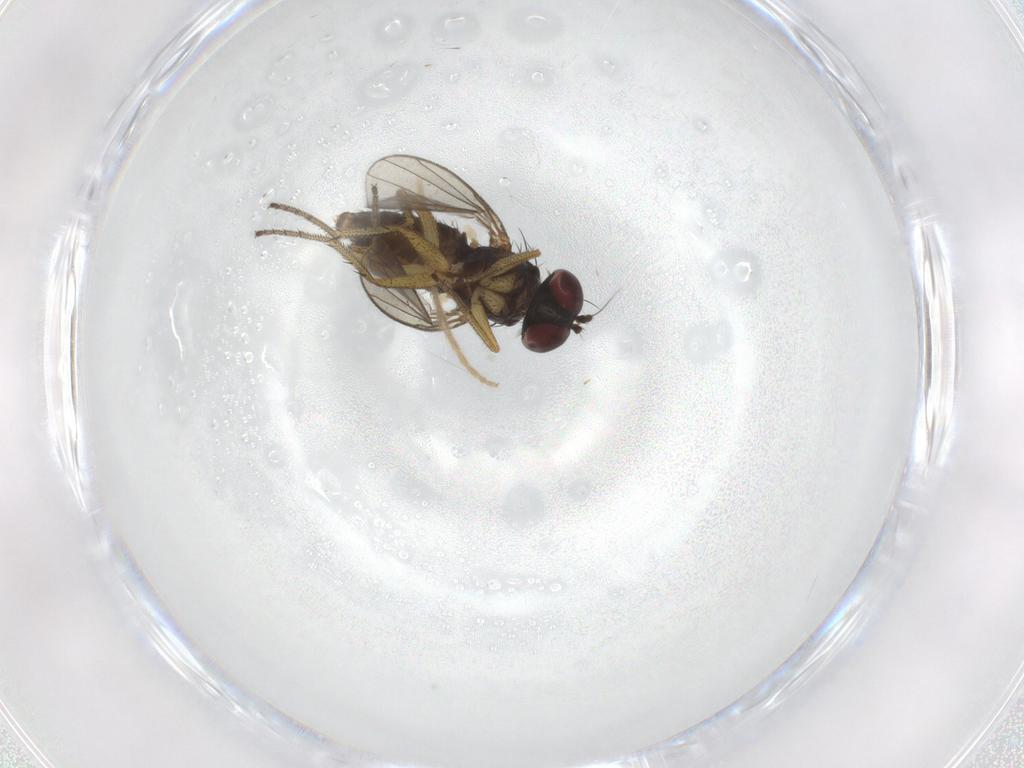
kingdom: Animalia
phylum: Arthropoda
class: Insecta
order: Diptera
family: Chironomidae
